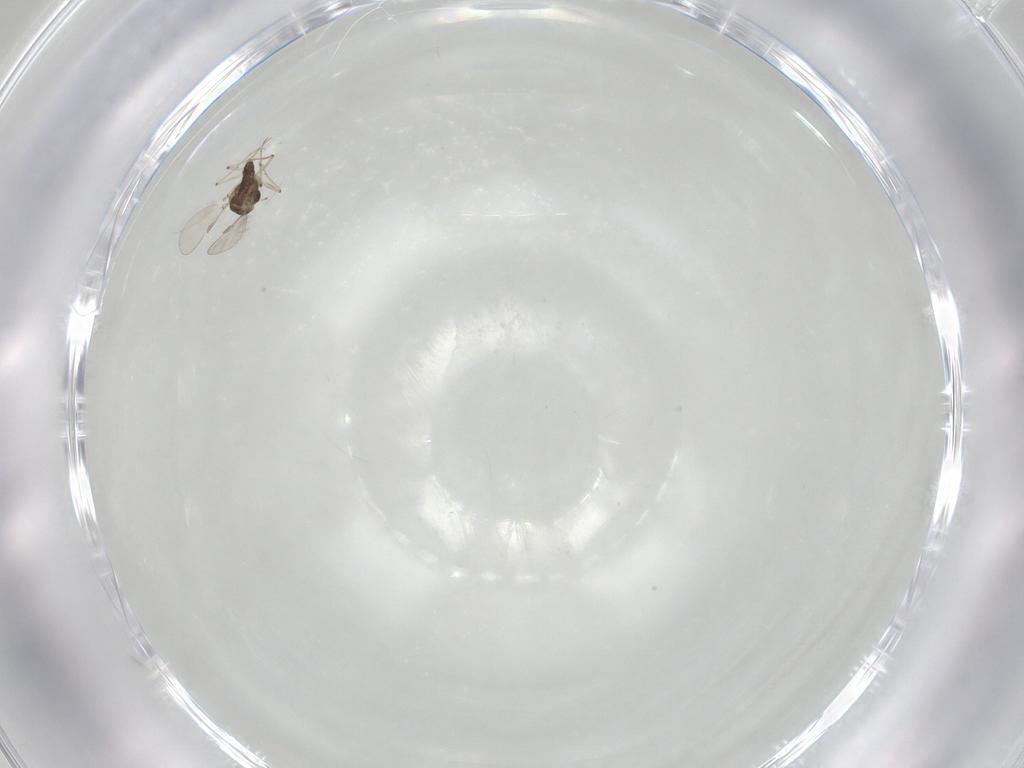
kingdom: Animalia
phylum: Arthropoda
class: Insecta
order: Diptera
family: Chironomidae
